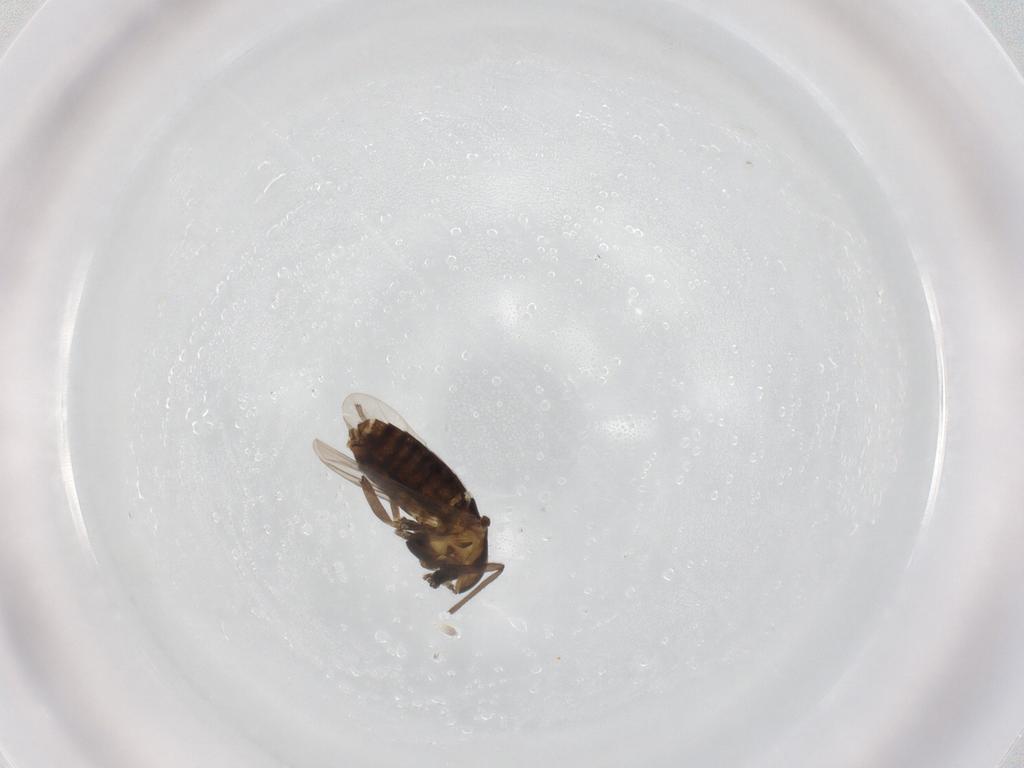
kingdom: Animalia
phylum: Arthropoda
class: Insecta
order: Diptera
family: Chironomidae
